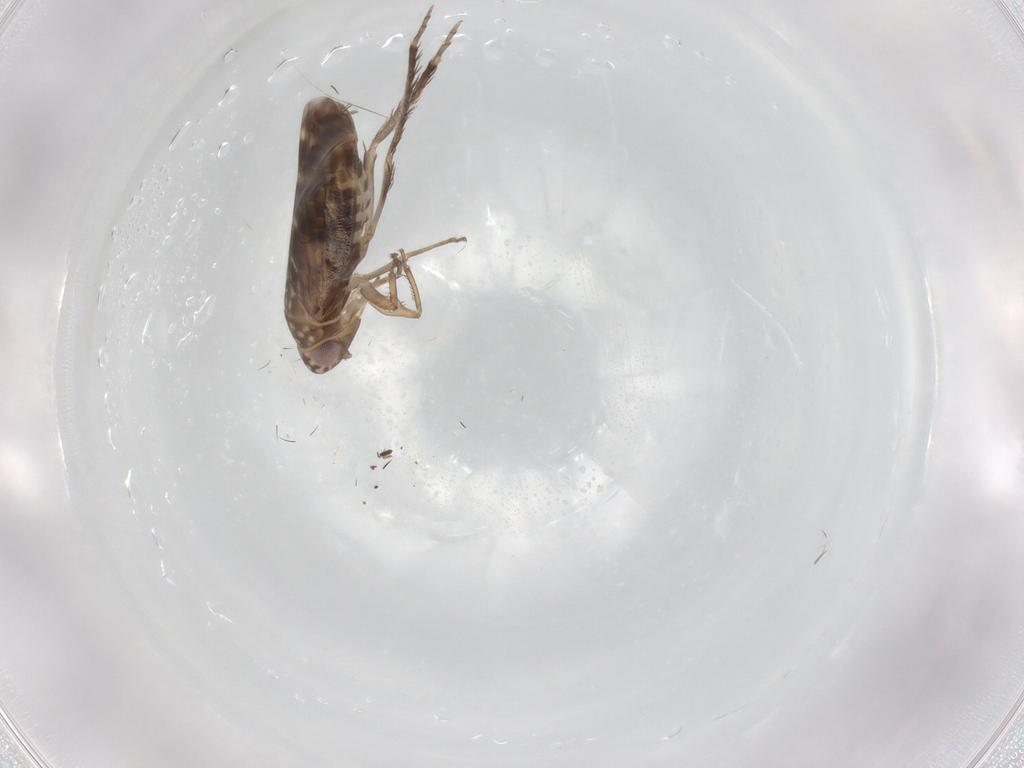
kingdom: Animalia
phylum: Arthropoda
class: Insecta
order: Hemiptera
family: Cicadellidae
